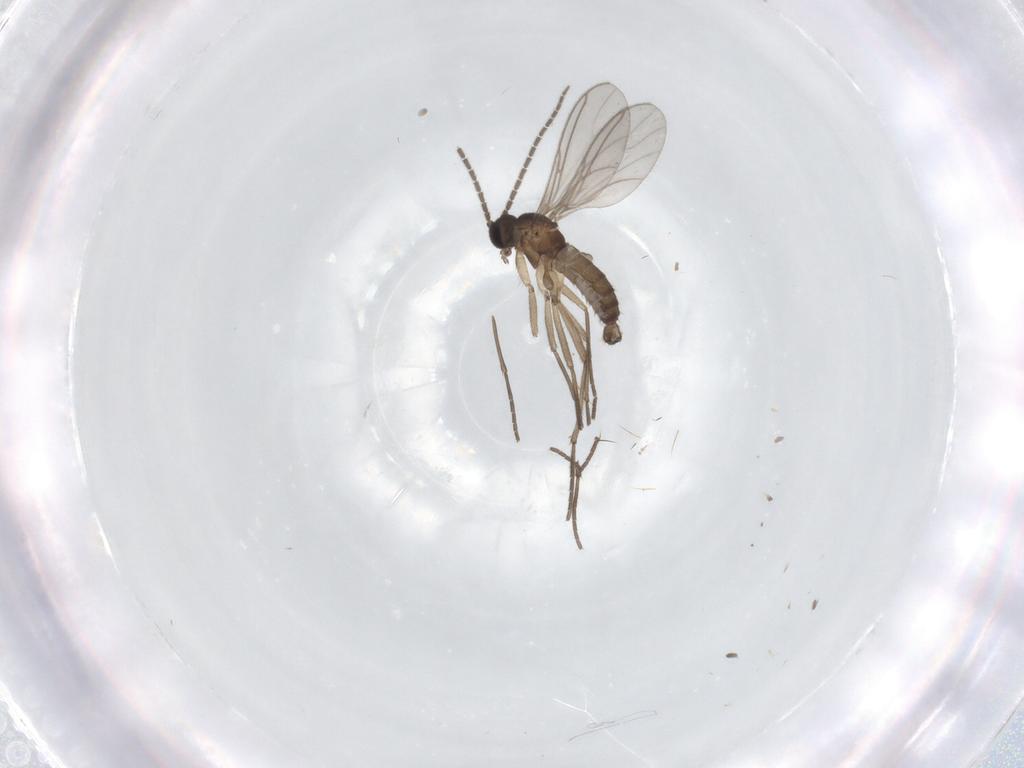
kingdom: Animalia
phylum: Arthropoda
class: Insecta
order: Diptera
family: Sciaridae
